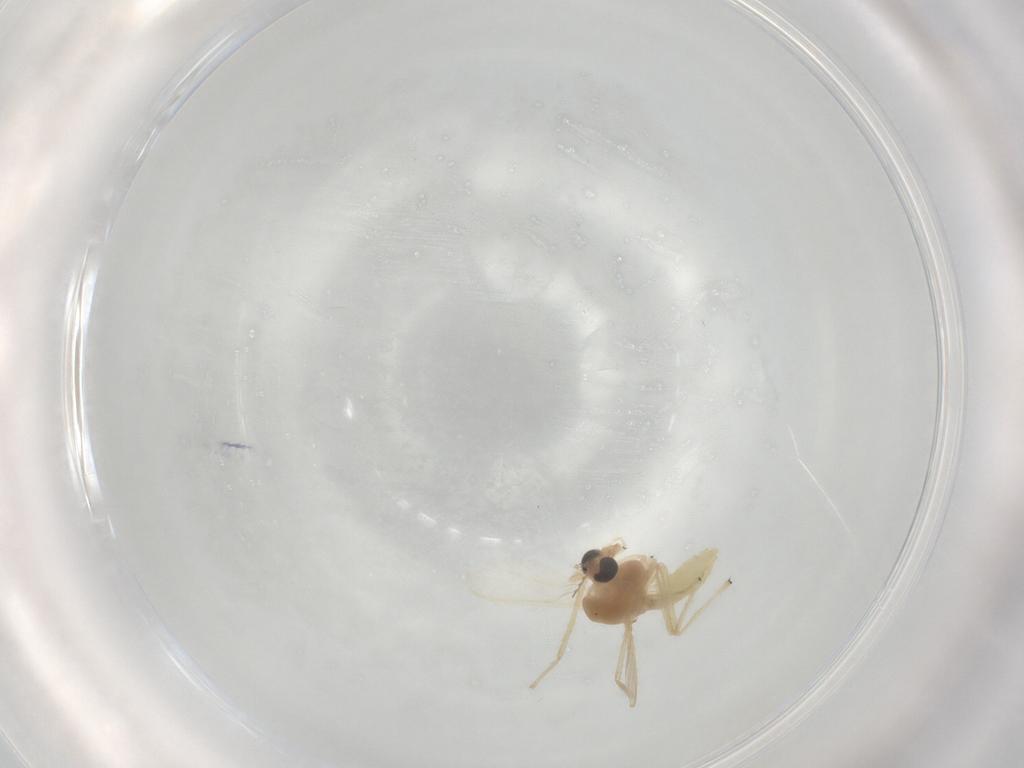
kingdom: Animalia
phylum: Arthropoda
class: Insecta
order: Diptera
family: Chironomidae
